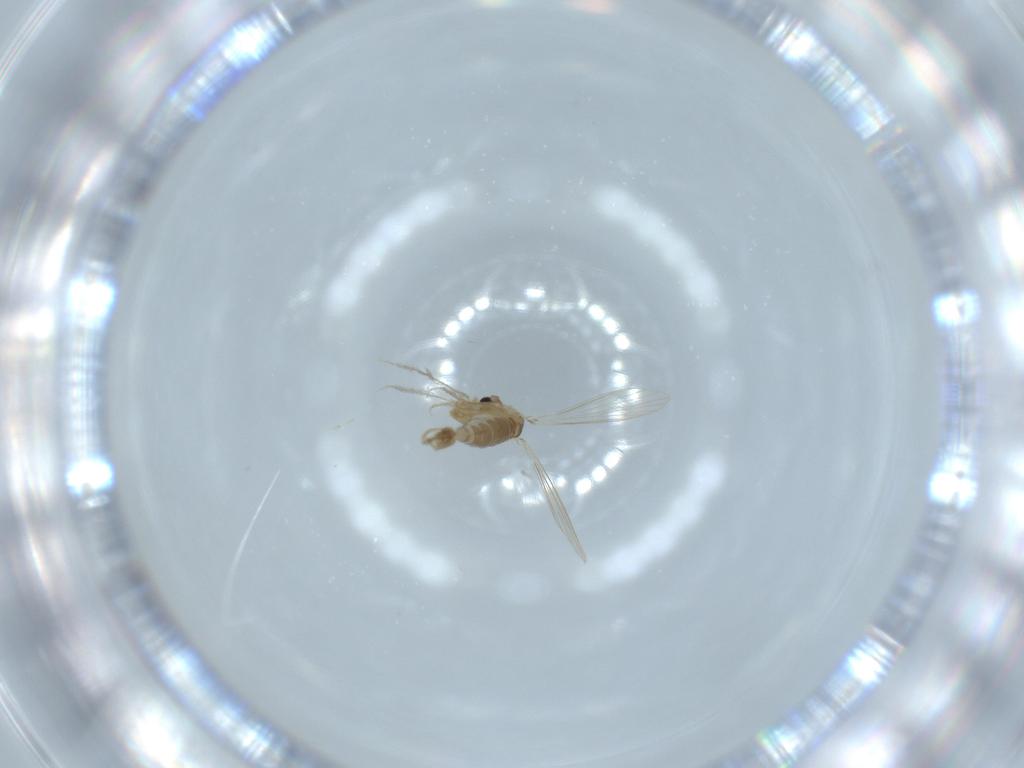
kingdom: Animalia
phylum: Arthropoda
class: Insecta
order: Diptera
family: Psychodidae
